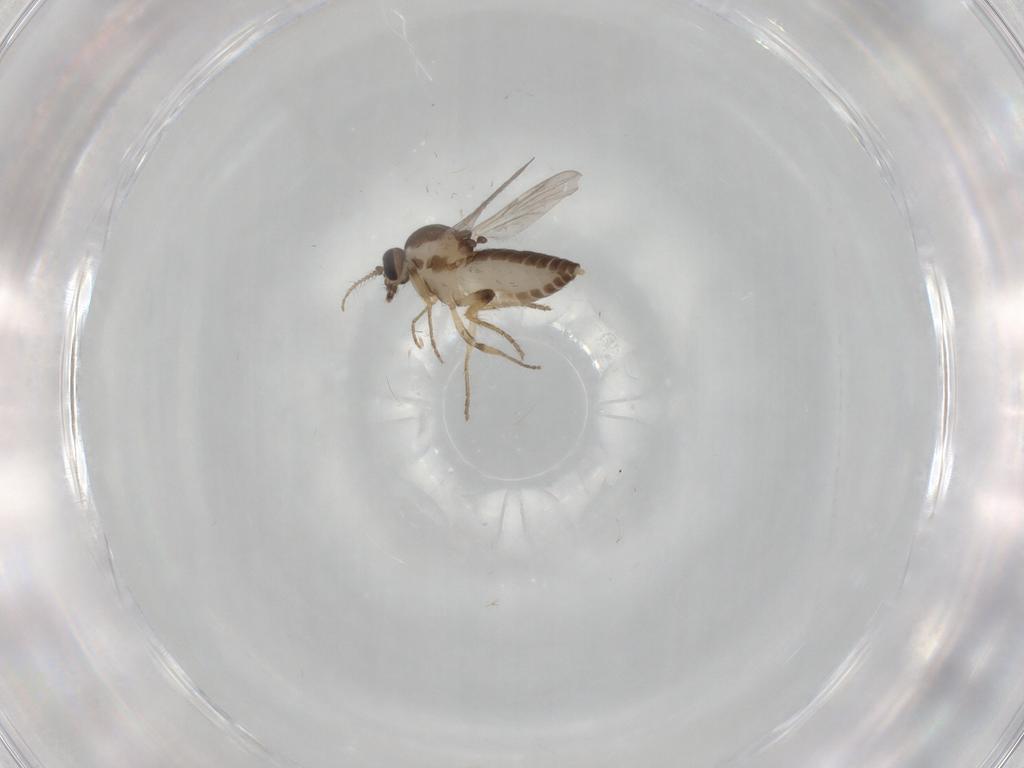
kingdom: Animalia
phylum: Arthropoda
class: Insecta
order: Diptera
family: Ceratopogonidae
